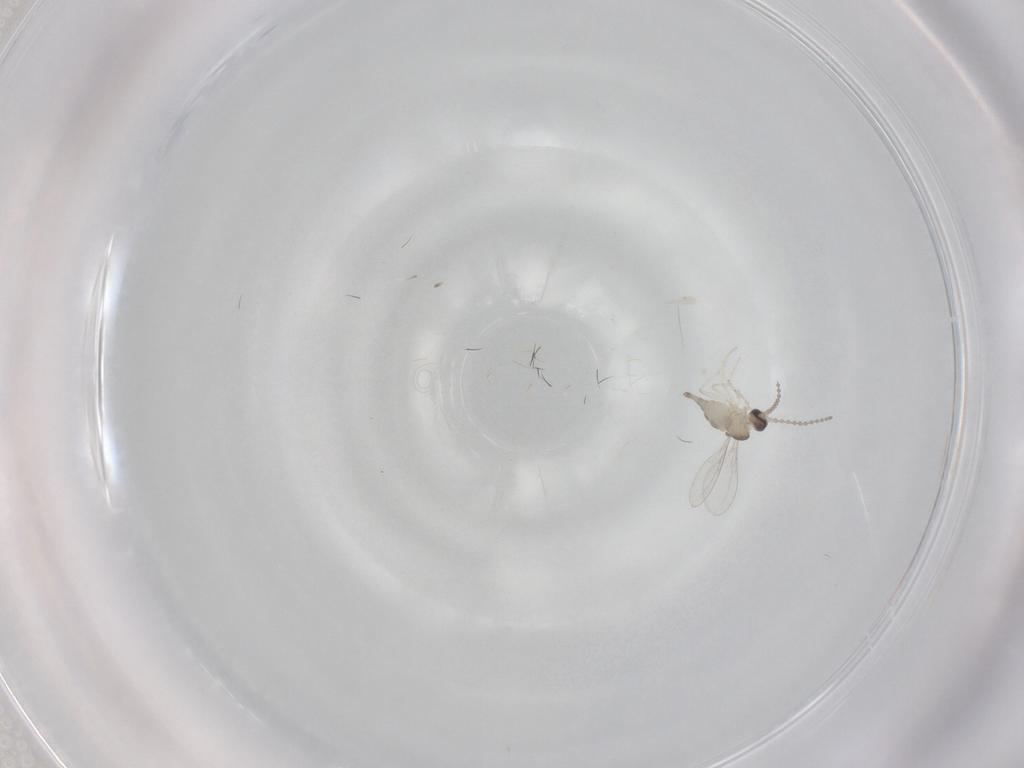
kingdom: Animalia
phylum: Arthropoda
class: Insecta
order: Diptera
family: Cecidomyiidae
